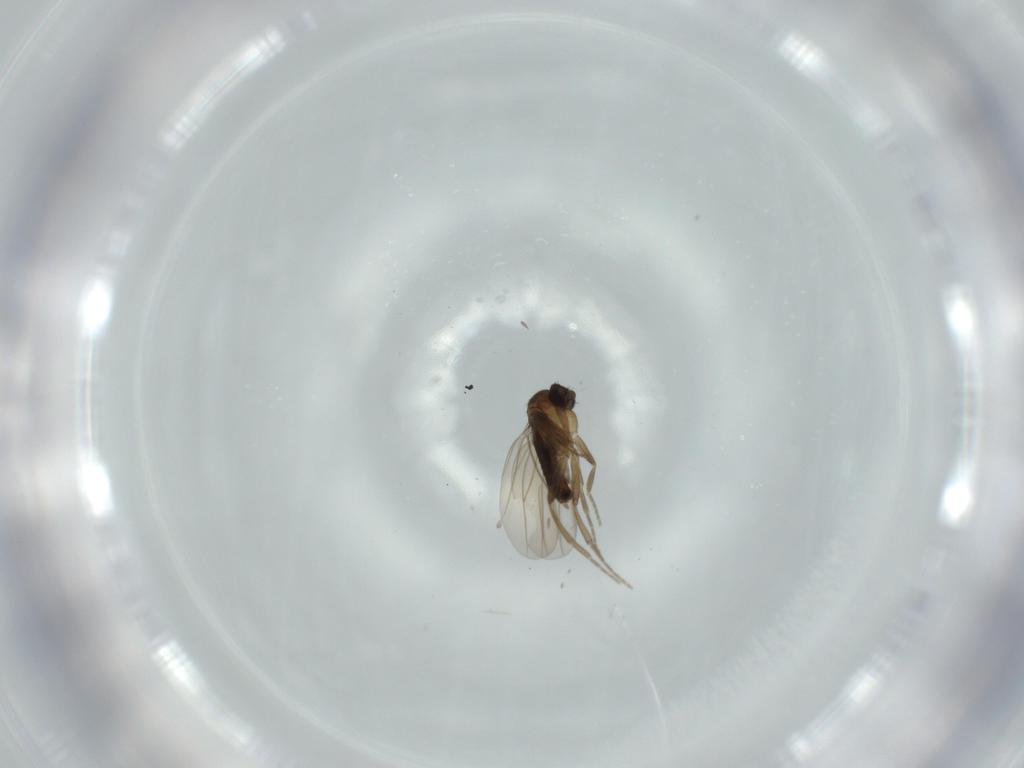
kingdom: Animalia
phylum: Arthropoda
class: Insecta
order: Diptera
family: Phoridae
